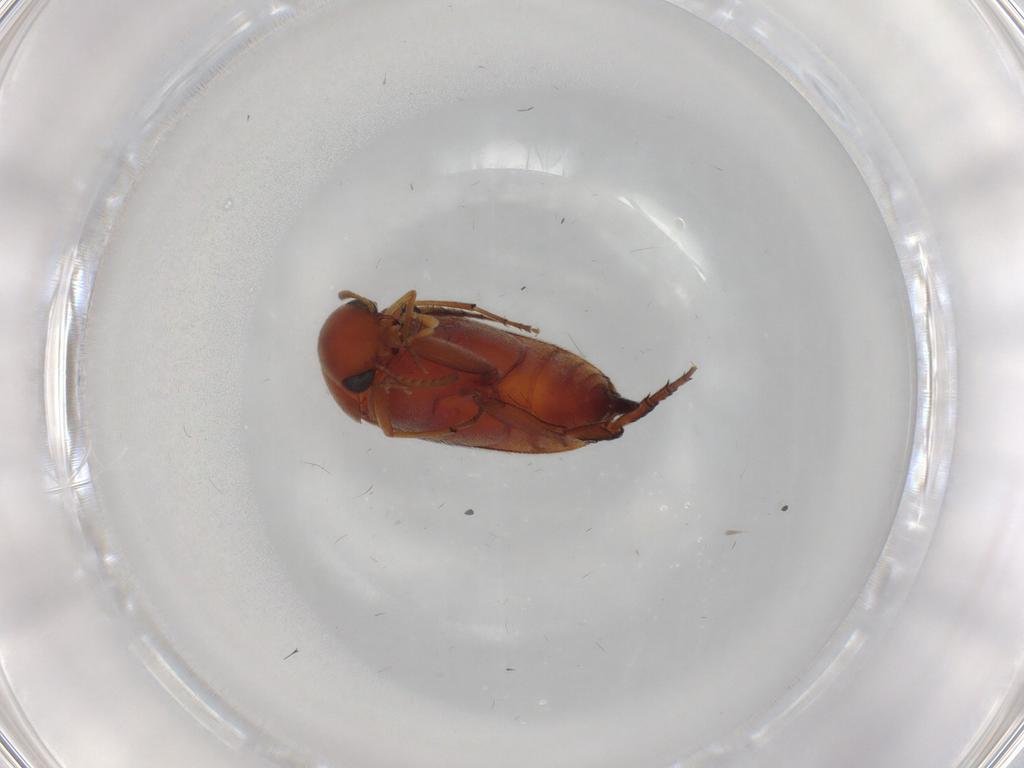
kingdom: Animalia
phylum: Arthropoda
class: Insecta
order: Coleoptera
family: Mordellidae
